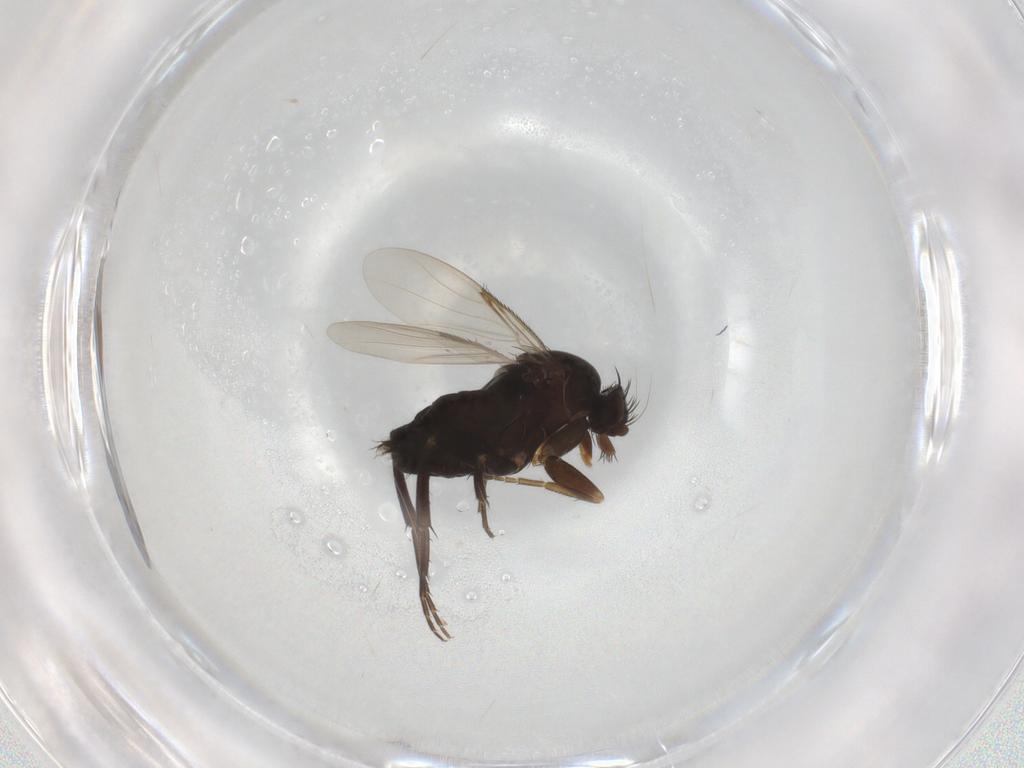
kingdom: Animalia
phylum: Arthropoda
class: Insecta
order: Diptera
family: Phoridae
